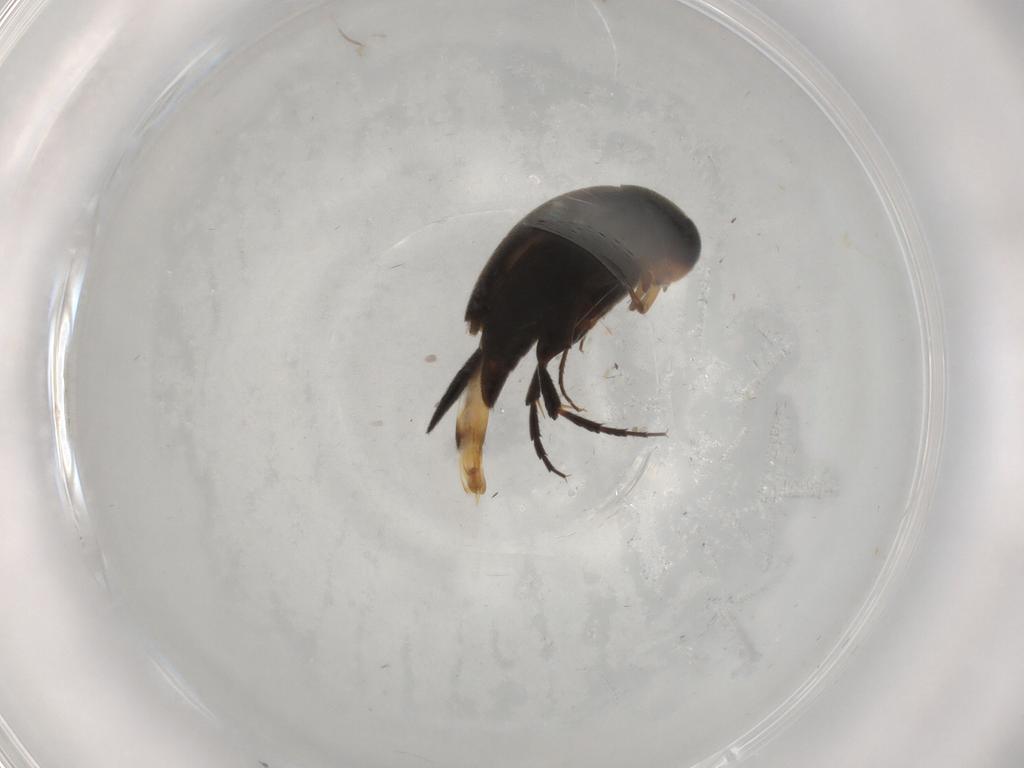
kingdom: Animalia
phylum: Arthropoda
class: Insecta
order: Coleoptera
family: Mordellidae
